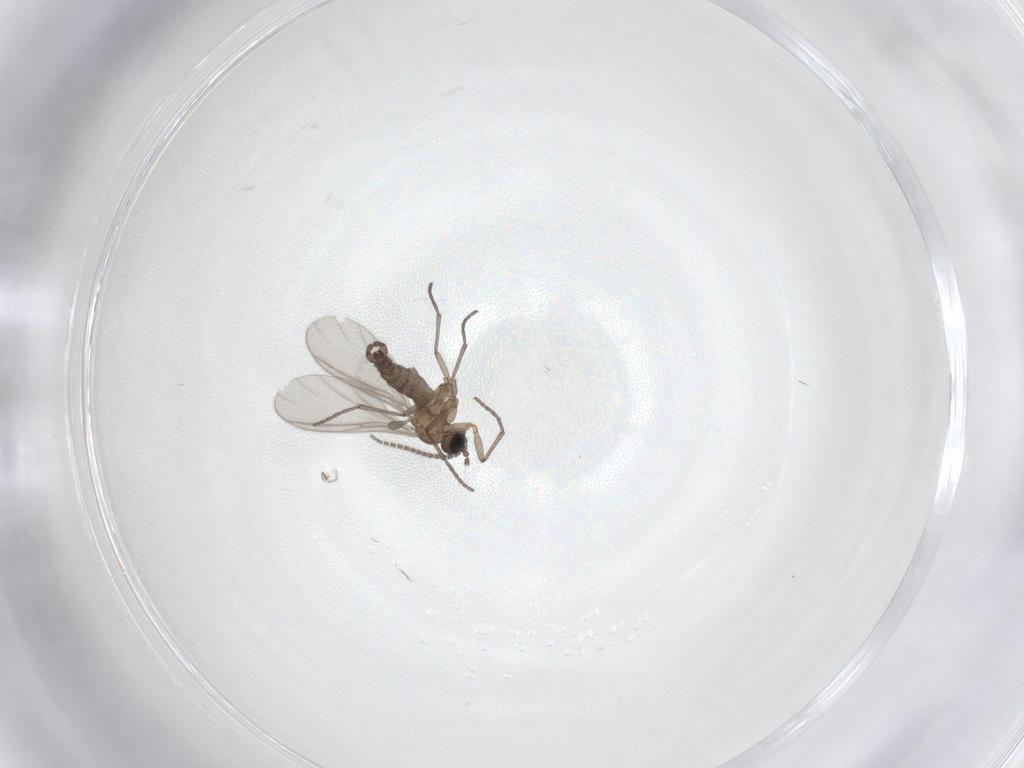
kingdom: Animalia
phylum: Arthropoda
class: Insecta
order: Diptera
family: Sciaridae
